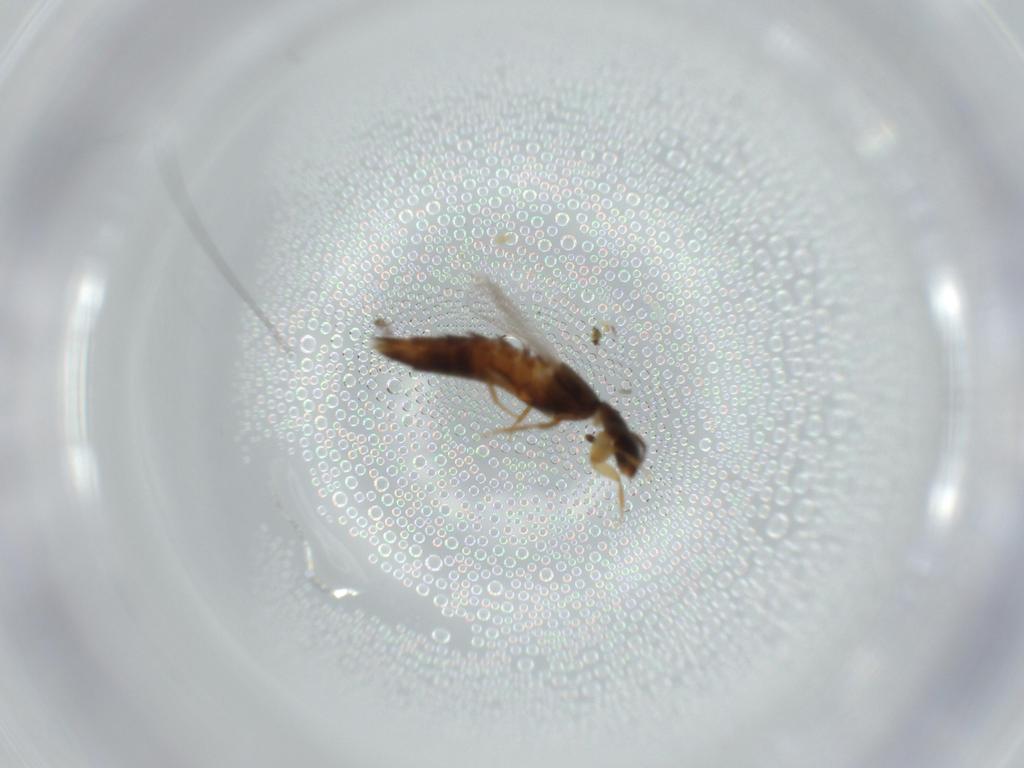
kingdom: Animalia
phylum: Arthropoda
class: Insecta
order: Coleoptera
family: Staphylinidae
